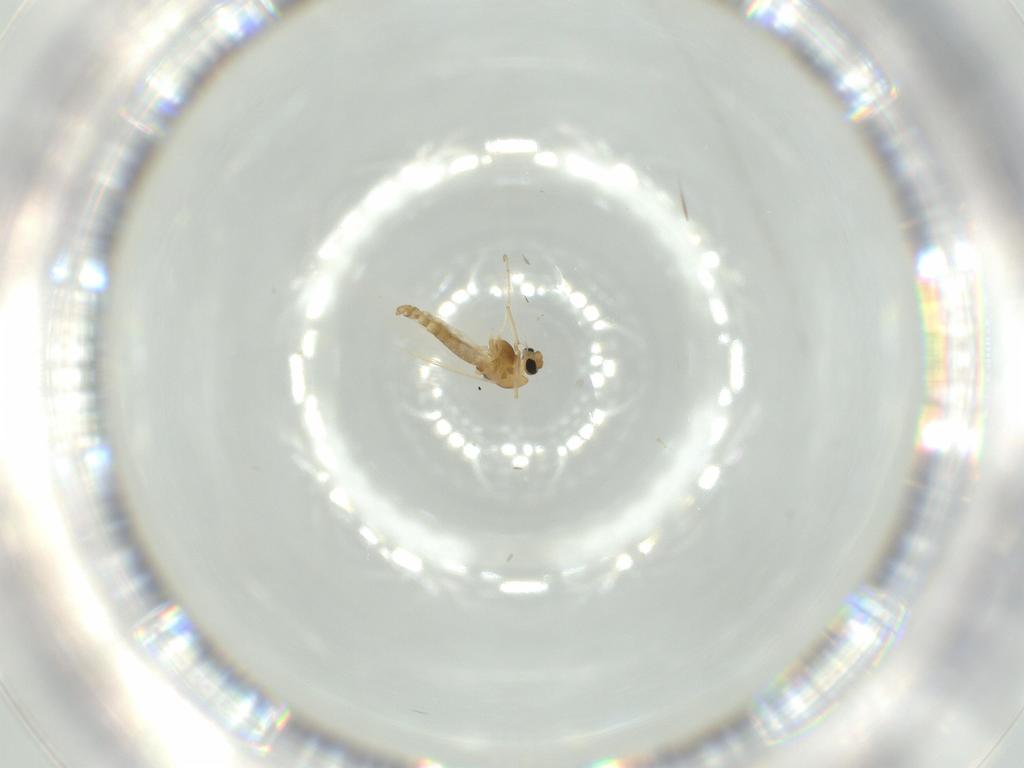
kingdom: Animalia
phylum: Arthropoda
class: Insecta
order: Diptera
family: Chironomidae
